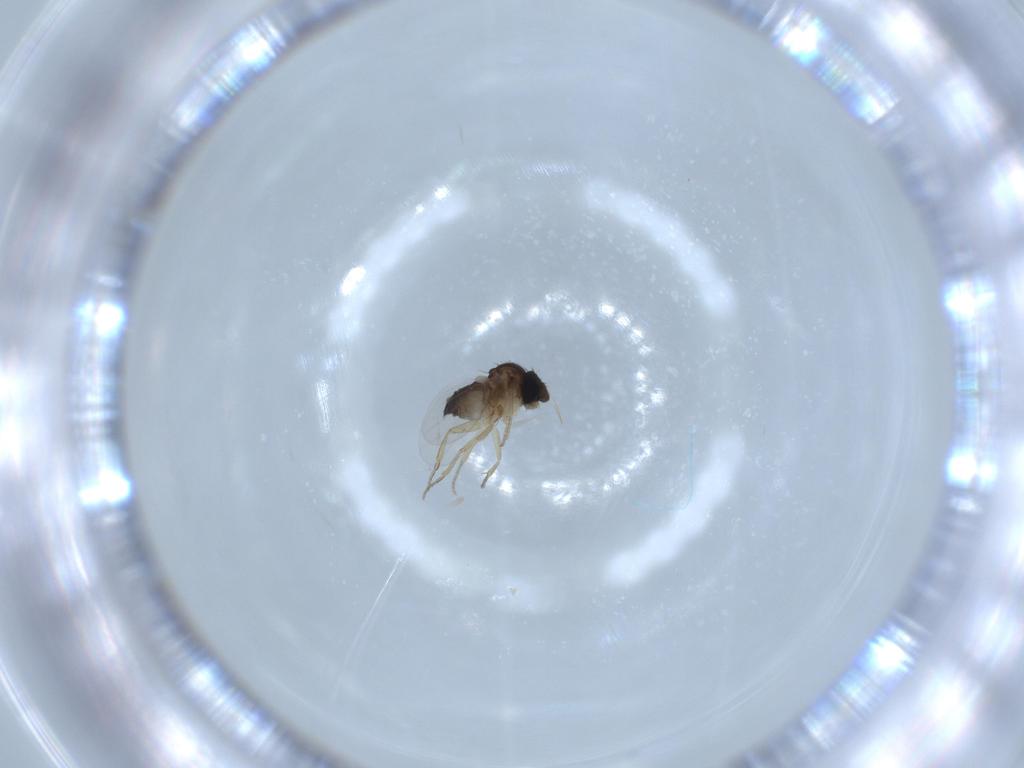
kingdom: Animalia
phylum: Arthropoda
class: Insecta
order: Diptera
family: Phoridae
